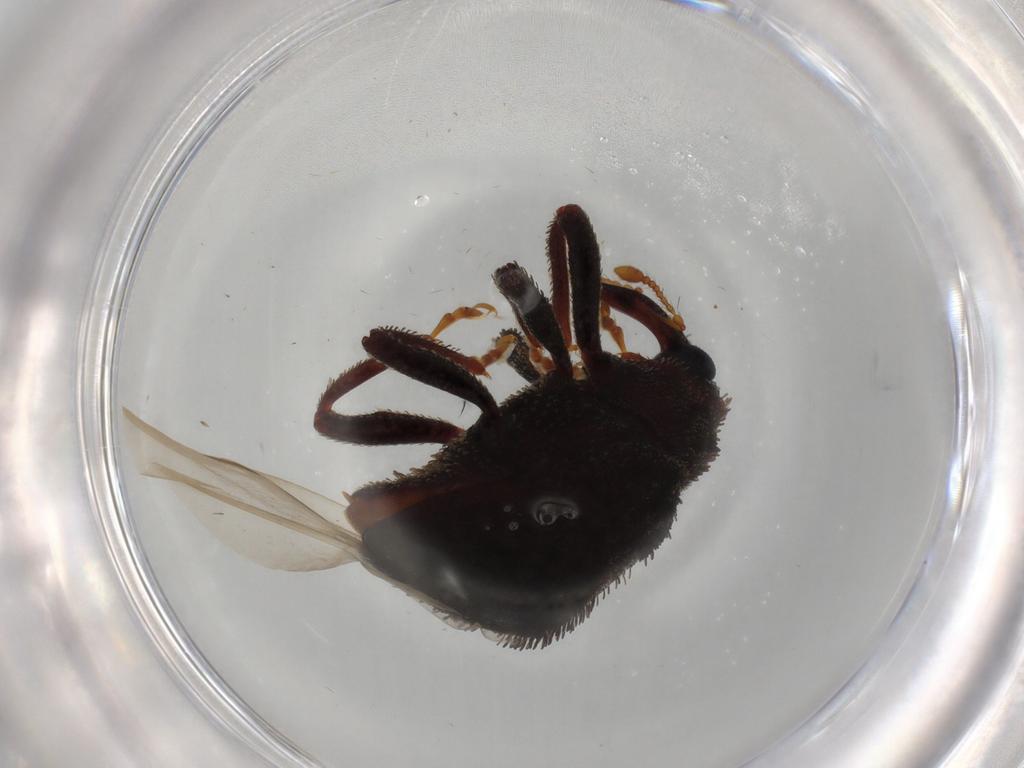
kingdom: Animalia
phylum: Arthropoda
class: Insecta
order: Coleoptera
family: Curculionidae
